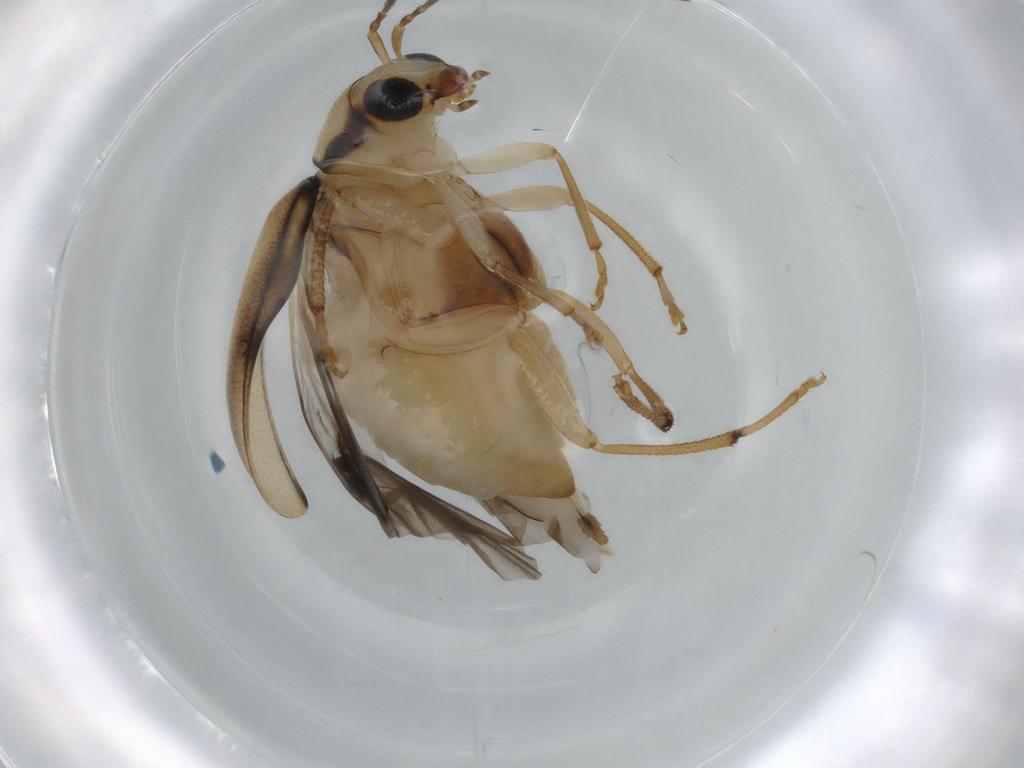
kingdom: Animalia
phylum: Arthropoda
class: Insecta
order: Coleoptera
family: Chrysomelidae
